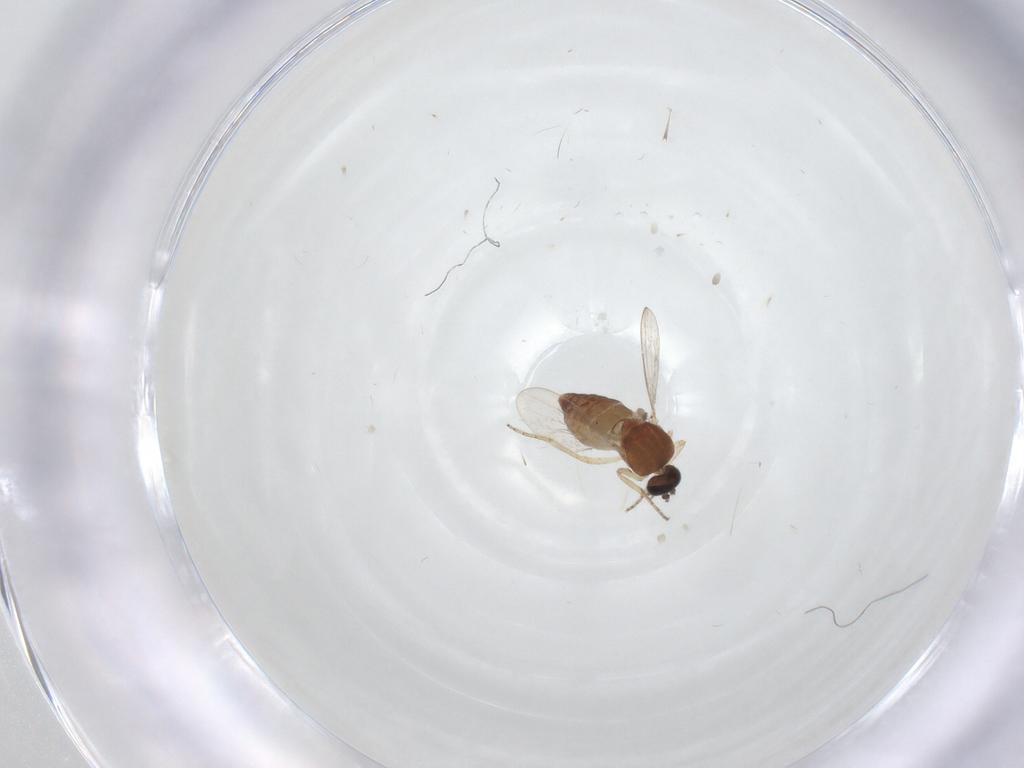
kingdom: Animalia
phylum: Arthropoda
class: Insecta
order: Diptera
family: Ceratopogonidae
